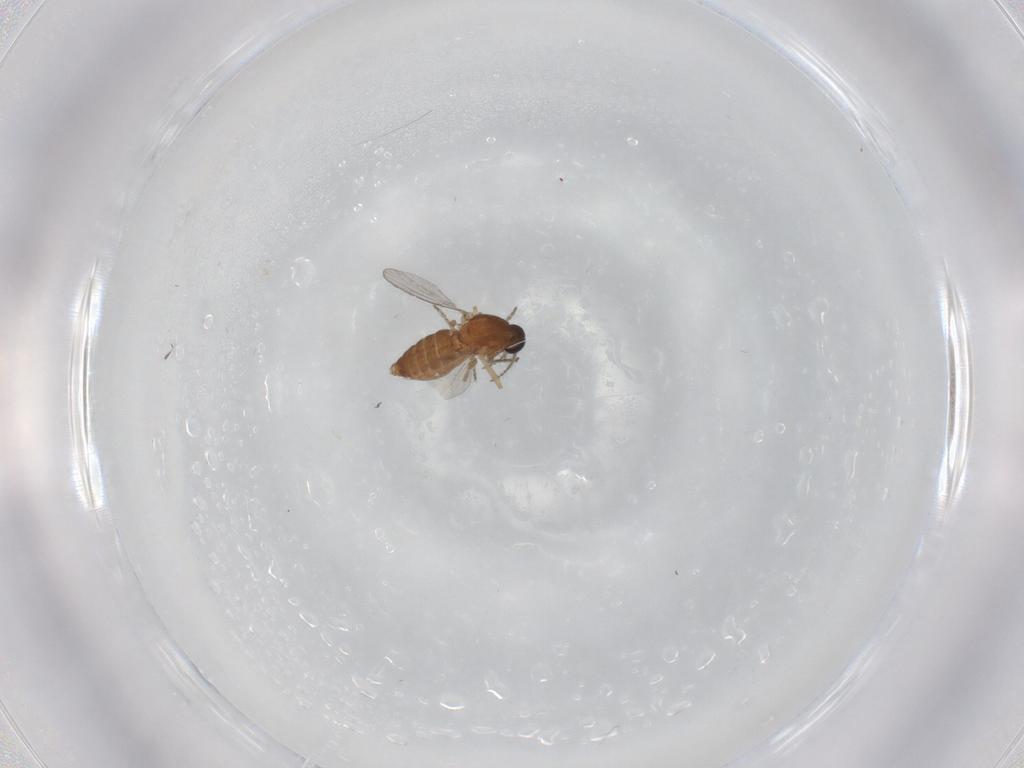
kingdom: Animalia
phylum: Arthropoda
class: Insecta
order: Diptera
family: Ceratopogonidae
